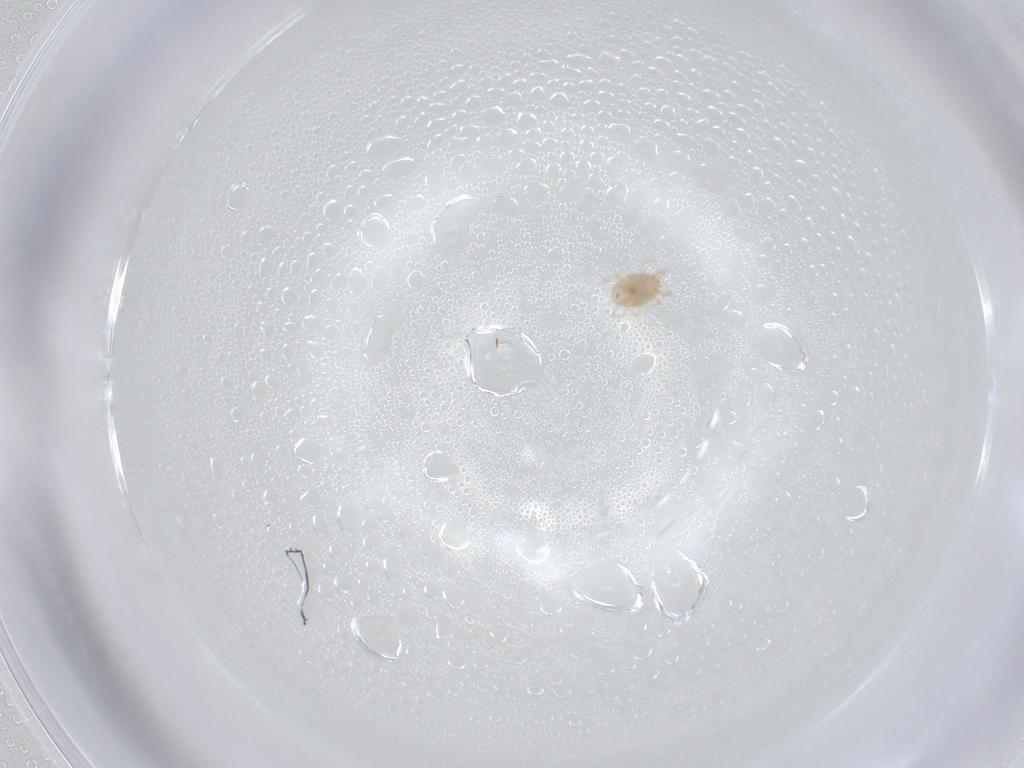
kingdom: Animalia
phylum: Arthropoda
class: Collembola
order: Entomobryomorpha
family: Entomobryidae
